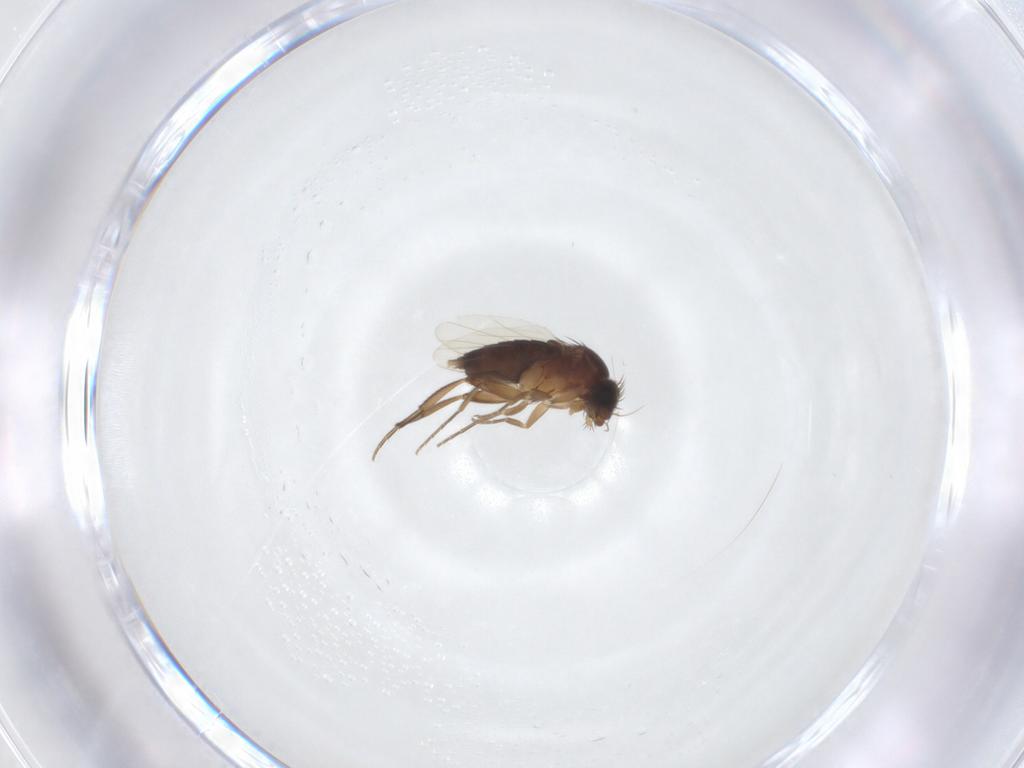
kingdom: Animalia
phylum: Arthropoda
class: Insecta
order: Diptera
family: Phoridae
